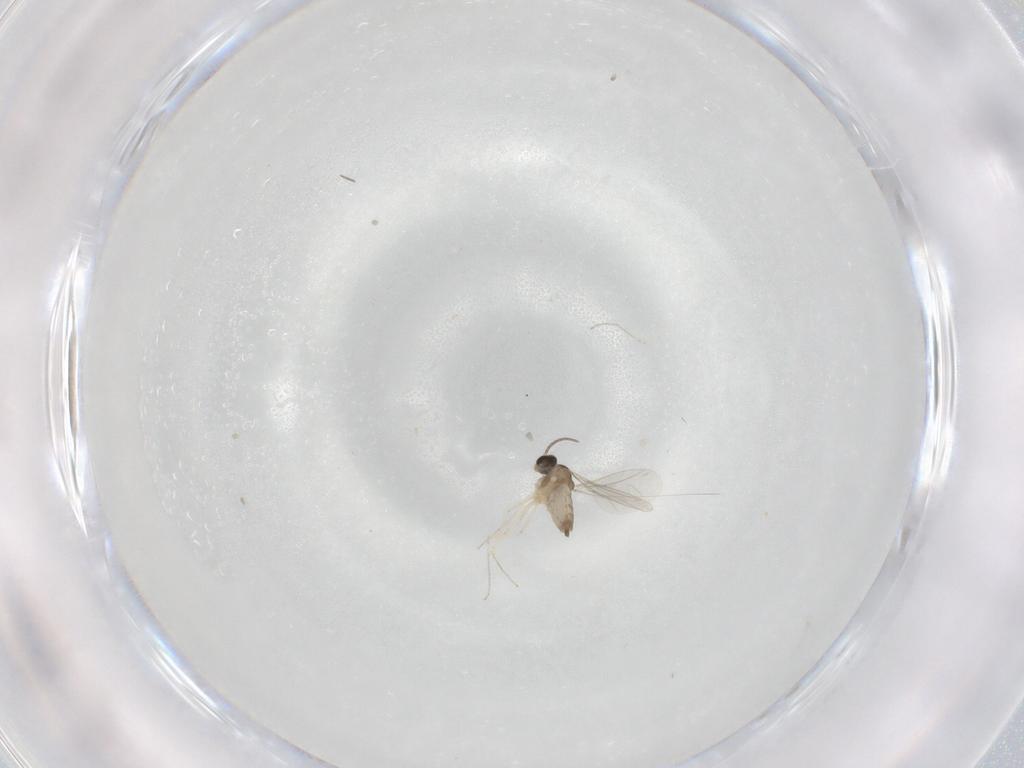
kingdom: Animalia
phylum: Arthropoda
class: Insecta
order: Diptera
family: Cecidomyiidae
